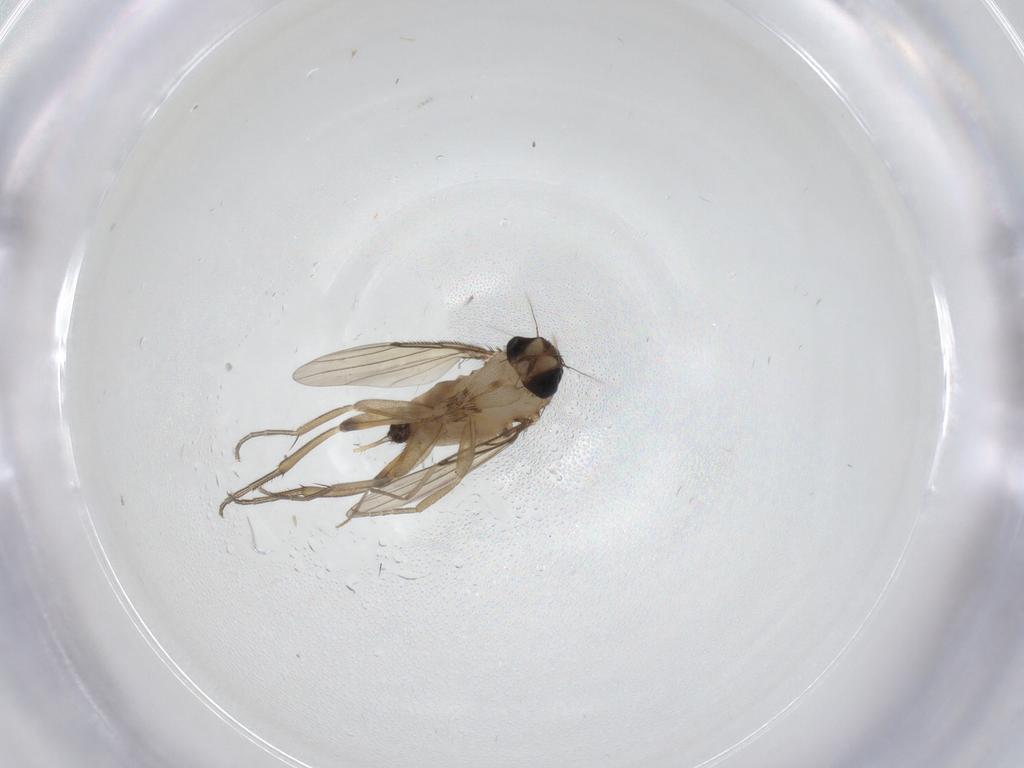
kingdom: Animalia
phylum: Arthropoda
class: Insecta
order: Diptera
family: Phoridae
